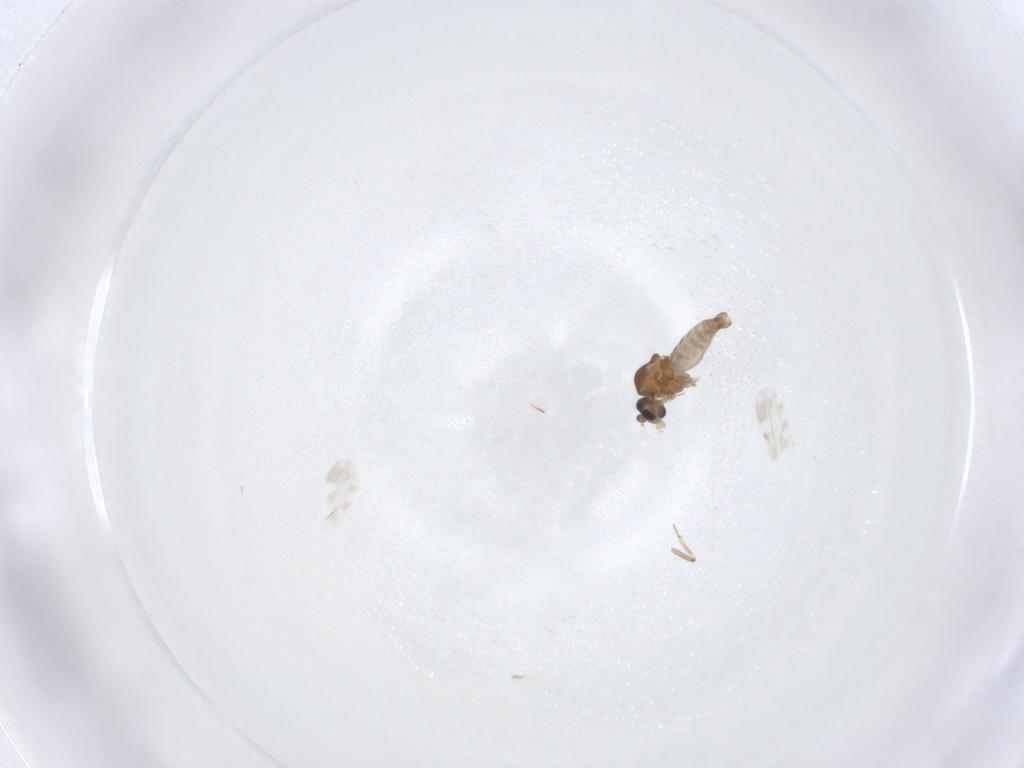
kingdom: Animalia
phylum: Arthropoda
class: Insecta
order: Diptera
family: Ceratopogonidae
